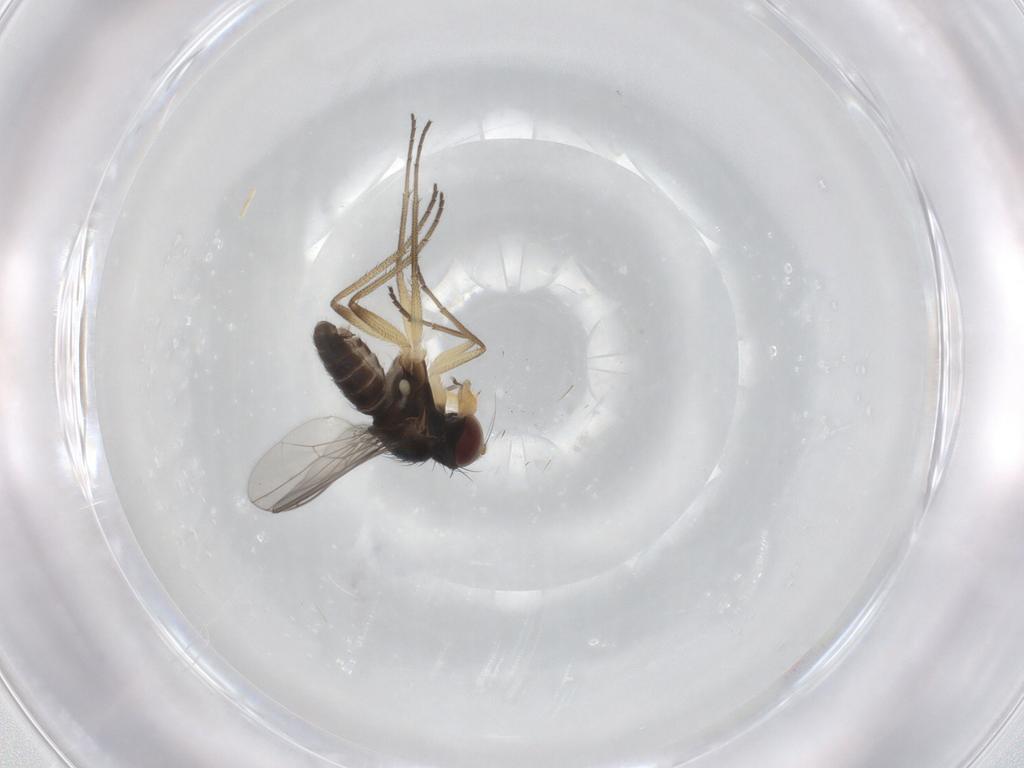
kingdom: Animalia
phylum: Arthropoda
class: Insecta
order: Diptera
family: Dolichopodidae
